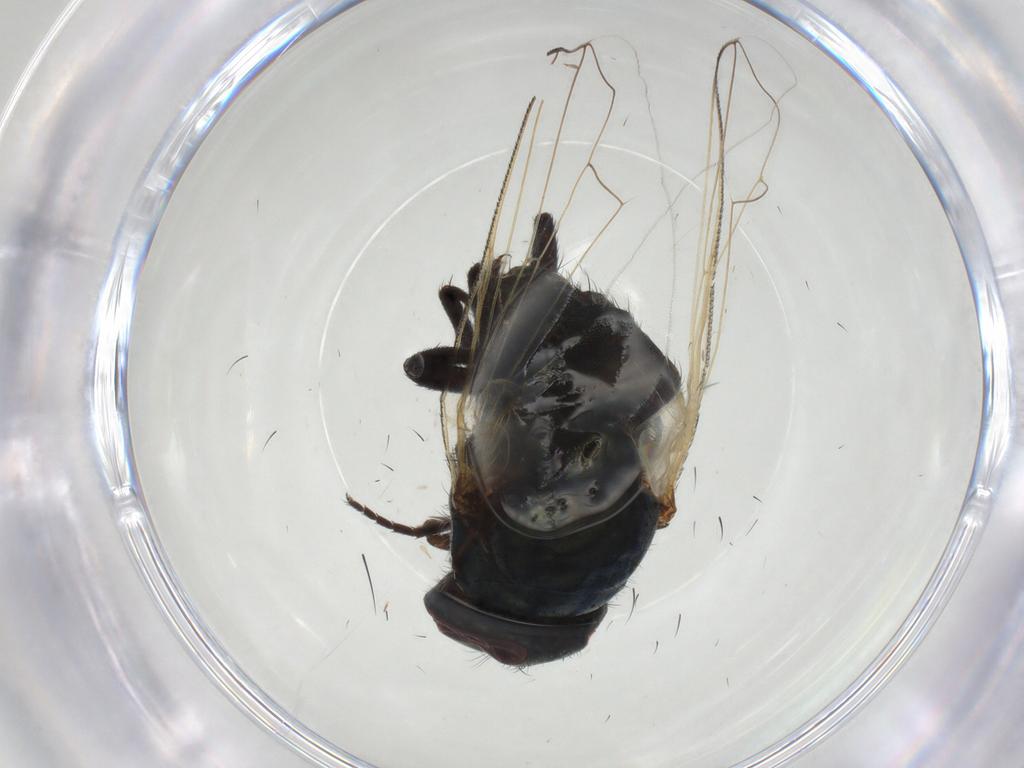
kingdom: Animalia
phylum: Arthropoda
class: Insecta
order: Diptera
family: Muscidae
